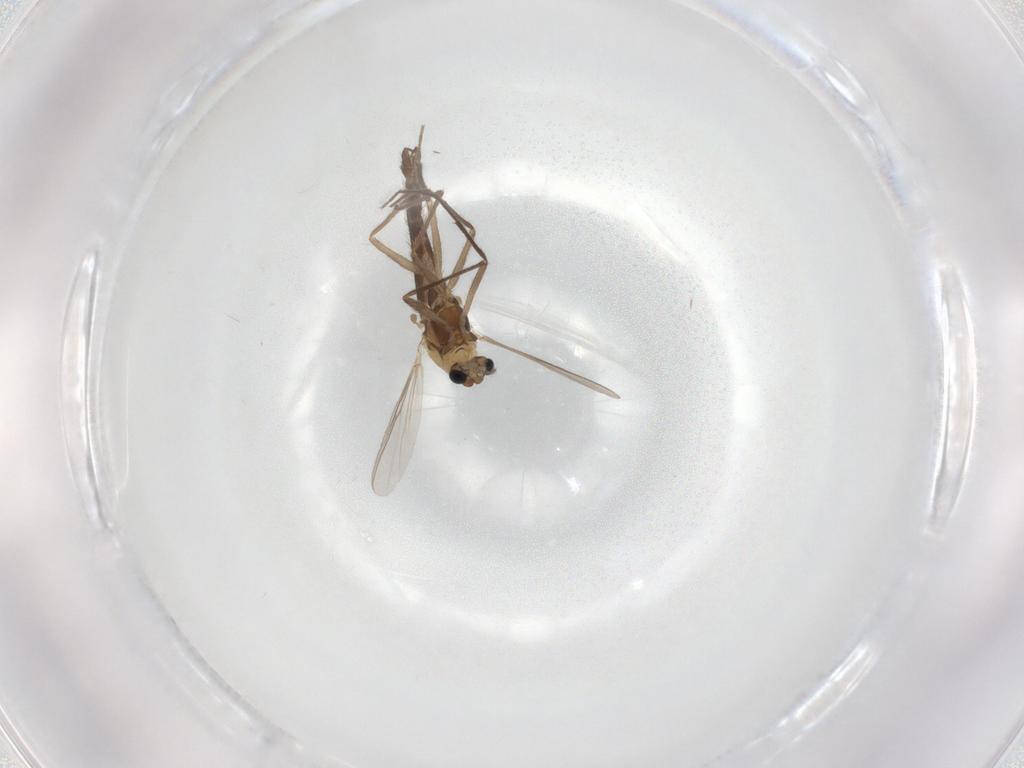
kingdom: Animalia
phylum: Arthropoda
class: Insecta
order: Diptera
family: Chironomidae
